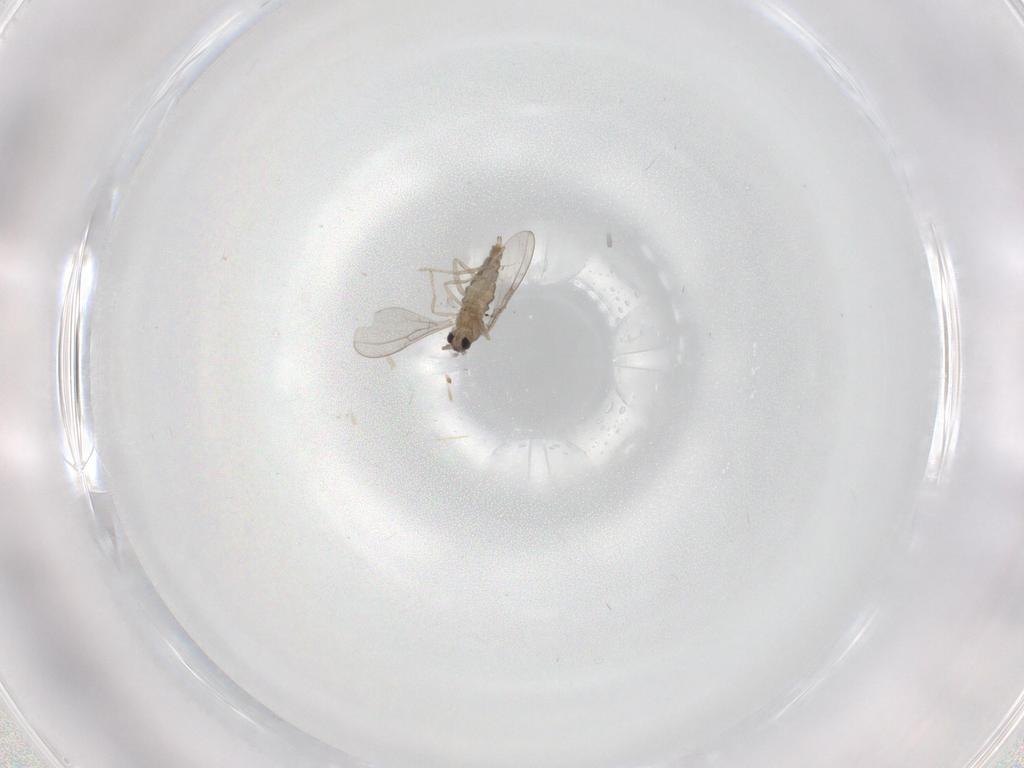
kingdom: Animalia
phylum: Arthropoda
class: Insecta
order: Diptera
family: Cecidomyiidae
